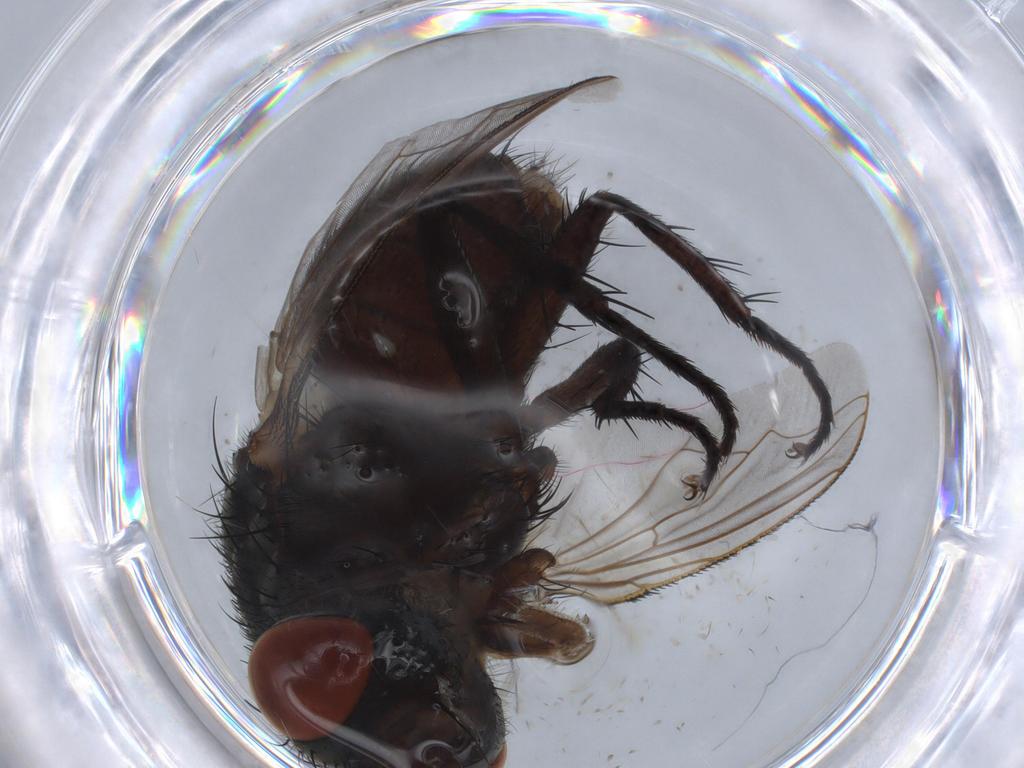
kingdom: Animalia
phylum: Arthropoda
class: Insecta
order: Diptera
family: Sarcophagidae
